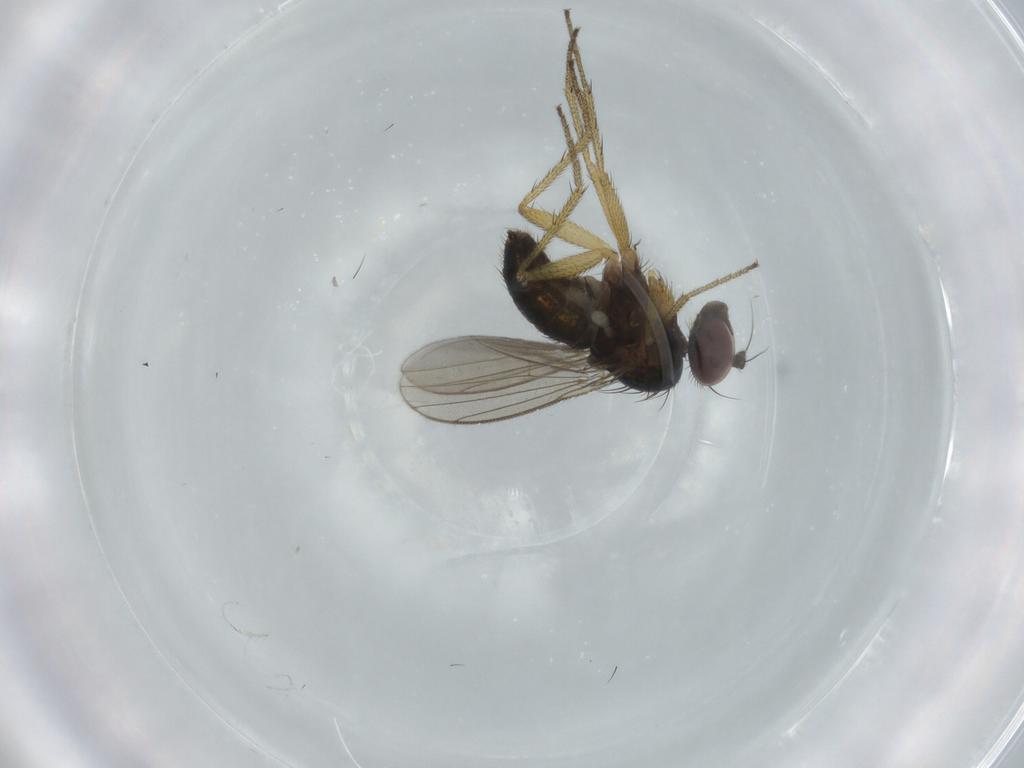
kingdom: Animalia
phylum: Arthropoda
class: Insecta
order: Diptera
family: Dolichopodidae
